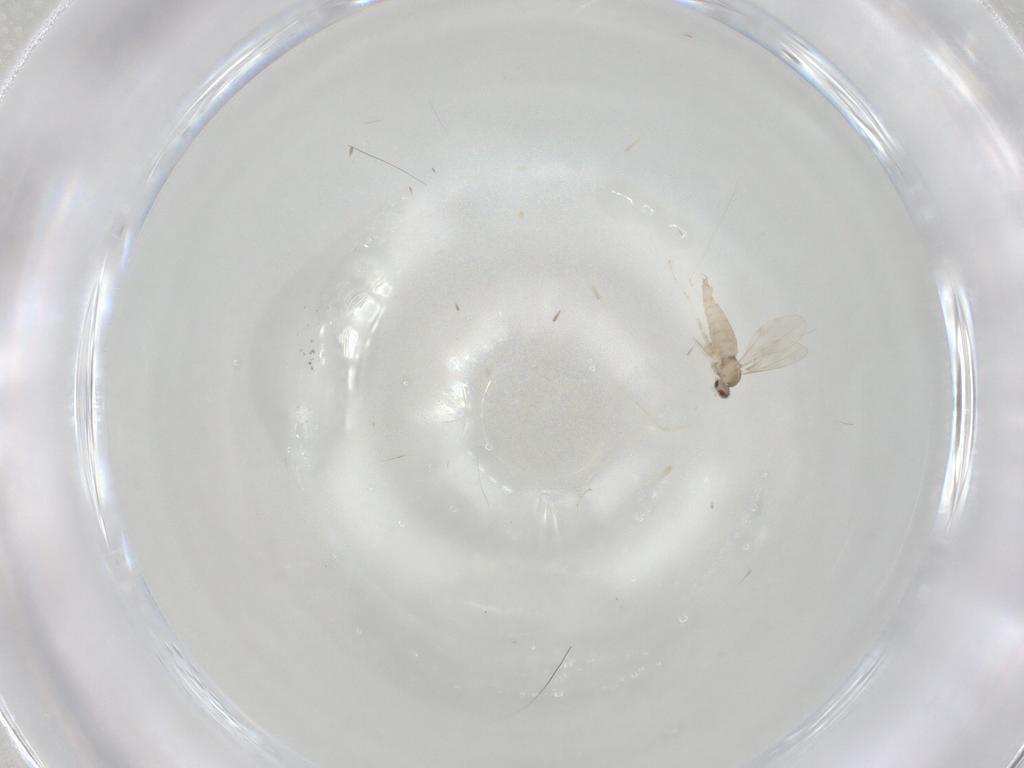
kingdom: Animalia
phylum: Arthropoda
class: Insecta
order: Diptera
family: Cecidomyiidae
